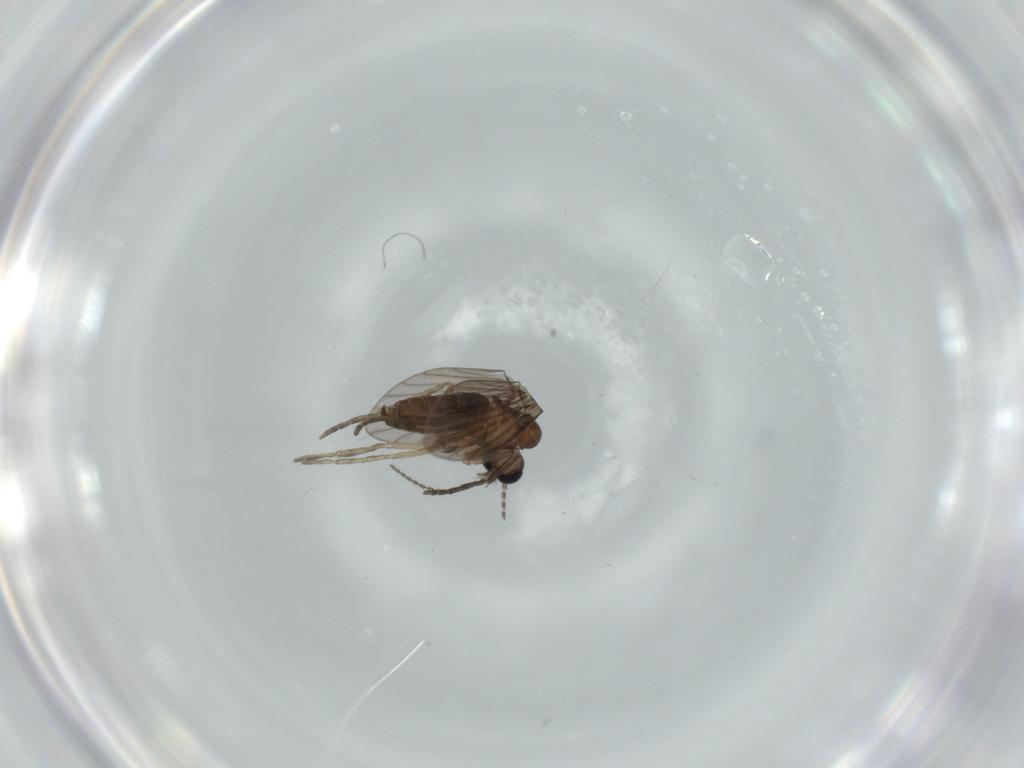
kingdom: Animalia
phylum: Arthropoda
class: Insecta
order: Diptera
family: Psychodidae
